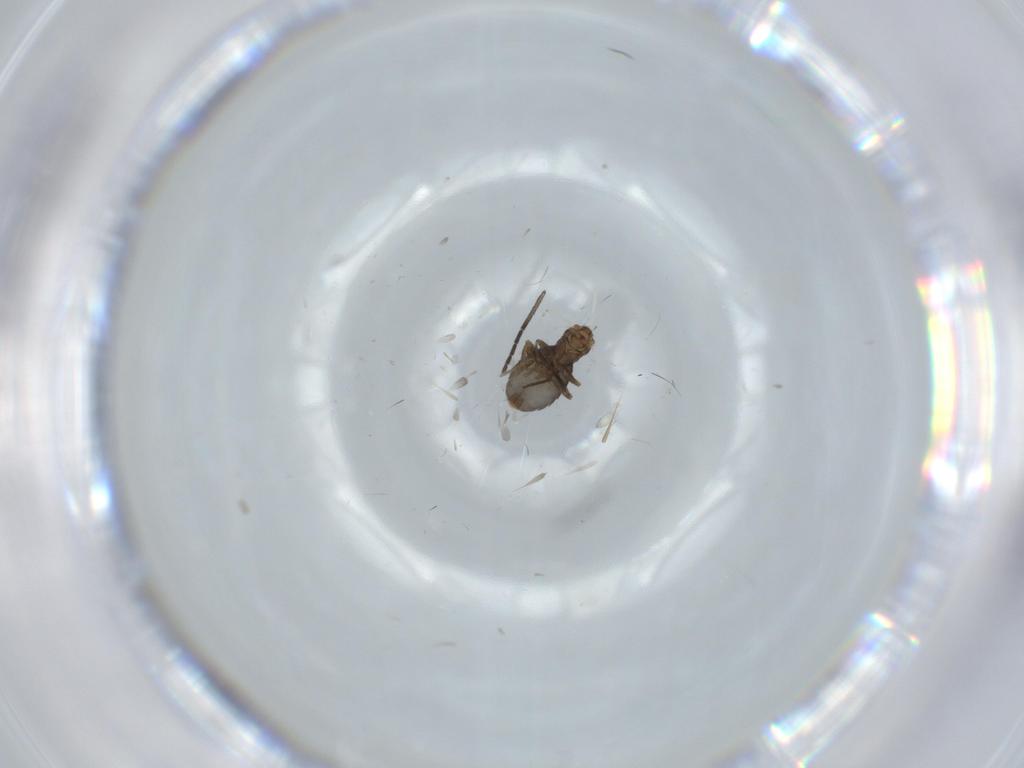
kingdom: Animalia
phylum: Arthropoda
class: Insecta
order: Diptera
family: Phoridae
